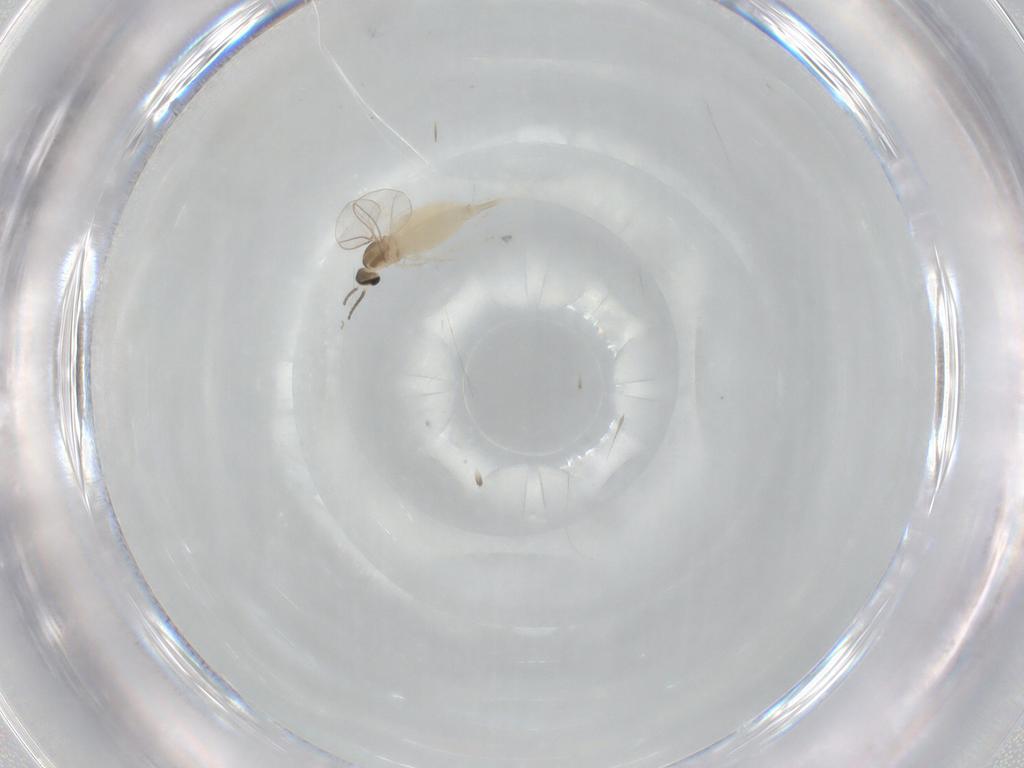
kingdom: Animalia
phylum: Arthropoda
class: Insecta
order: Diptera
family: Cecidomyiidae
